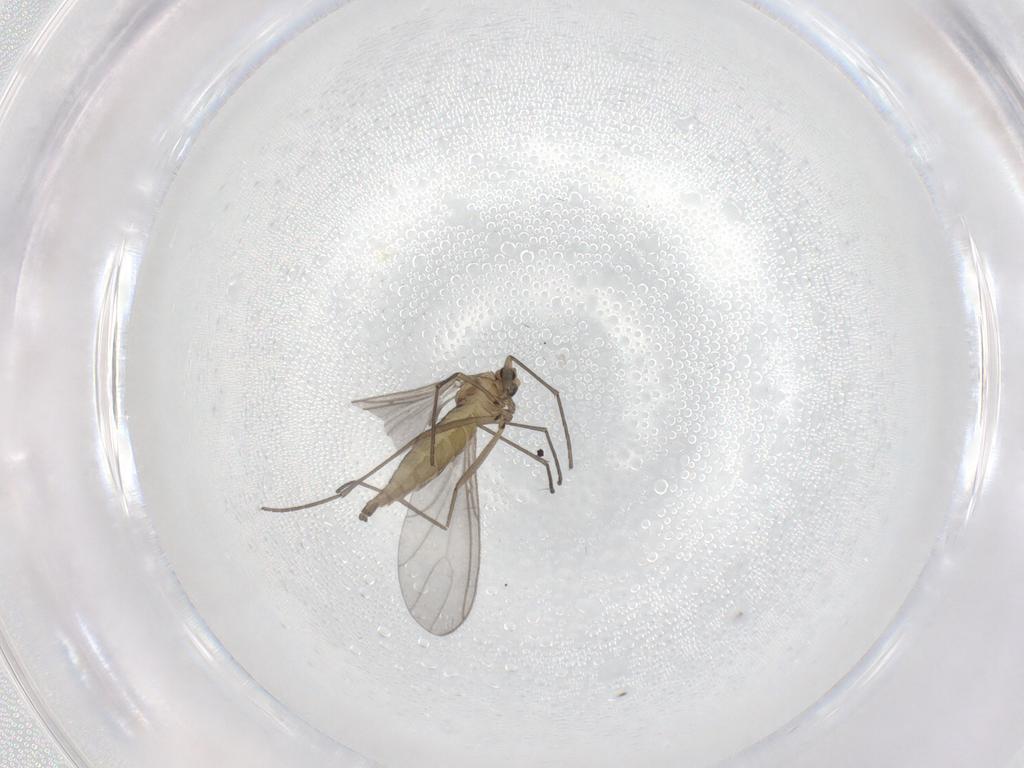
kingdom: Animalia
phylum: Arthropoda
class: Insecta
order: Diptera
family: Sciaridae
